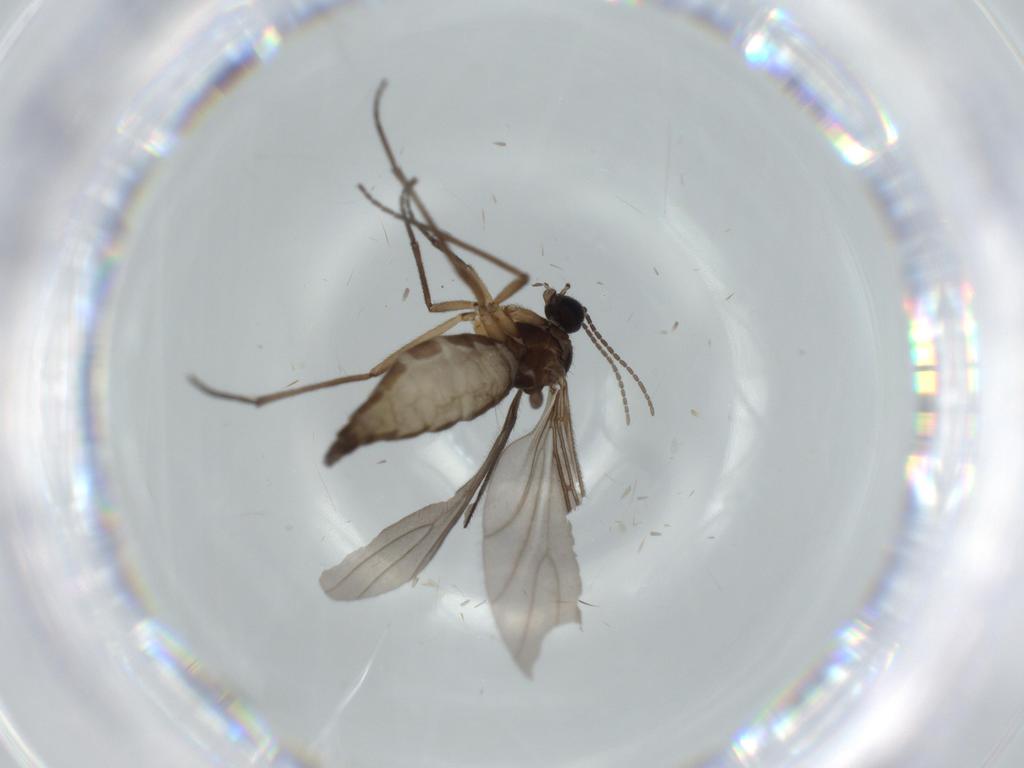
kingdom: Animalia
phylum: Arthropoda
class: Insecta
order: Diptera
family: Sciaridae
